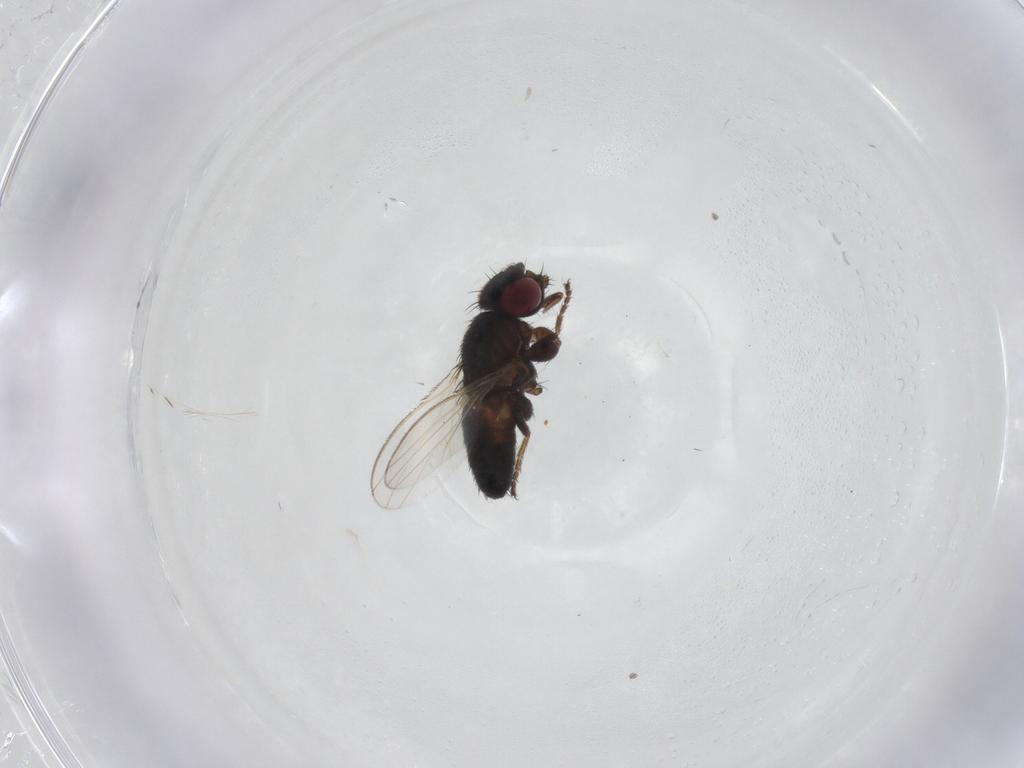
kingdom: Animalia
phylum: Arthropoda
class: Insecta
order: Diptera
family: Milichiidae
